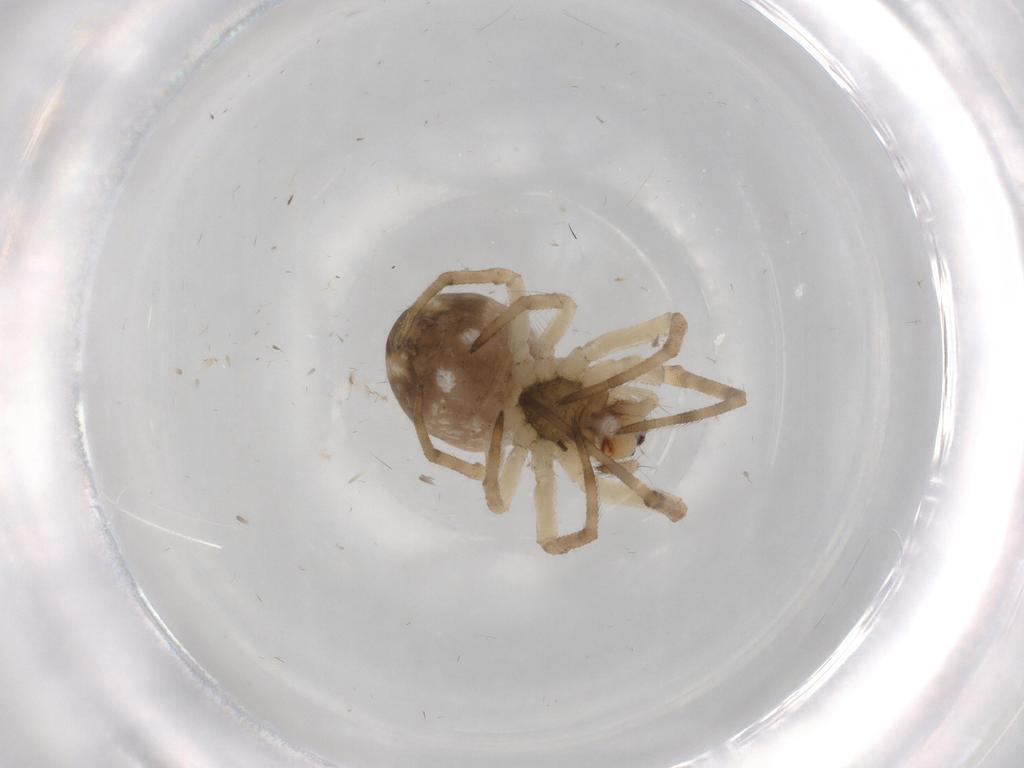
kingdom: Animalia
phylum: Arthropoda
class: Arachnida
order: Araneae
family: Tetragnathidae
